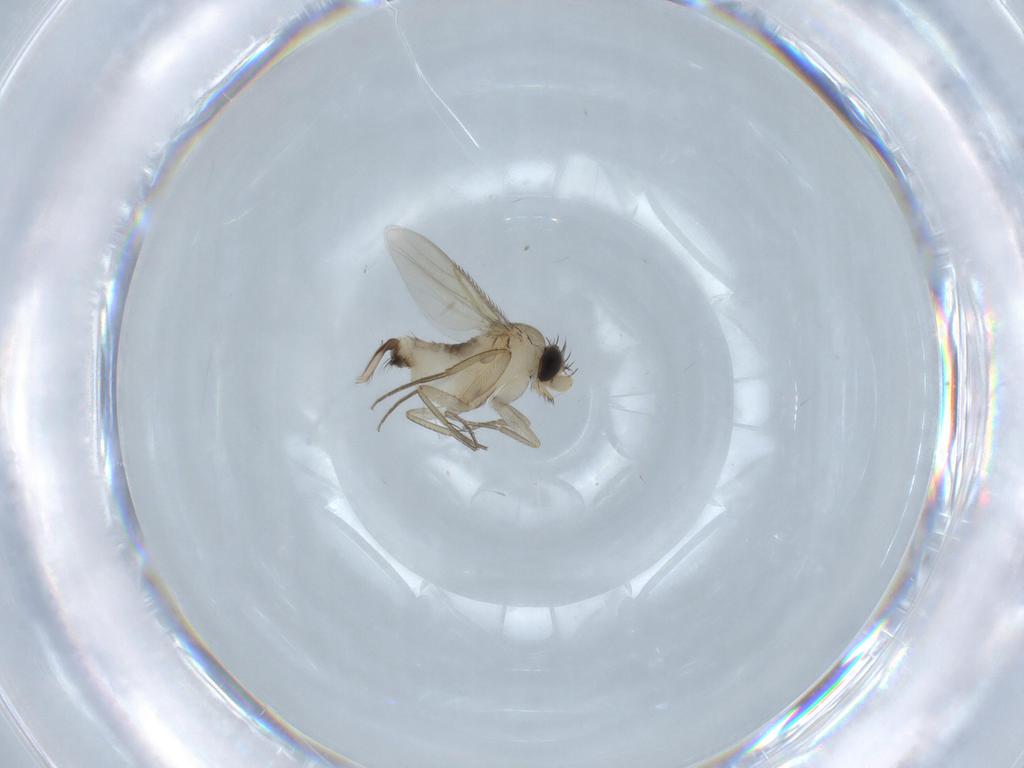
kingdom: Animalia
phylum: Arthropoda
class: Insecta
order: Diptera
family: Phoridae
